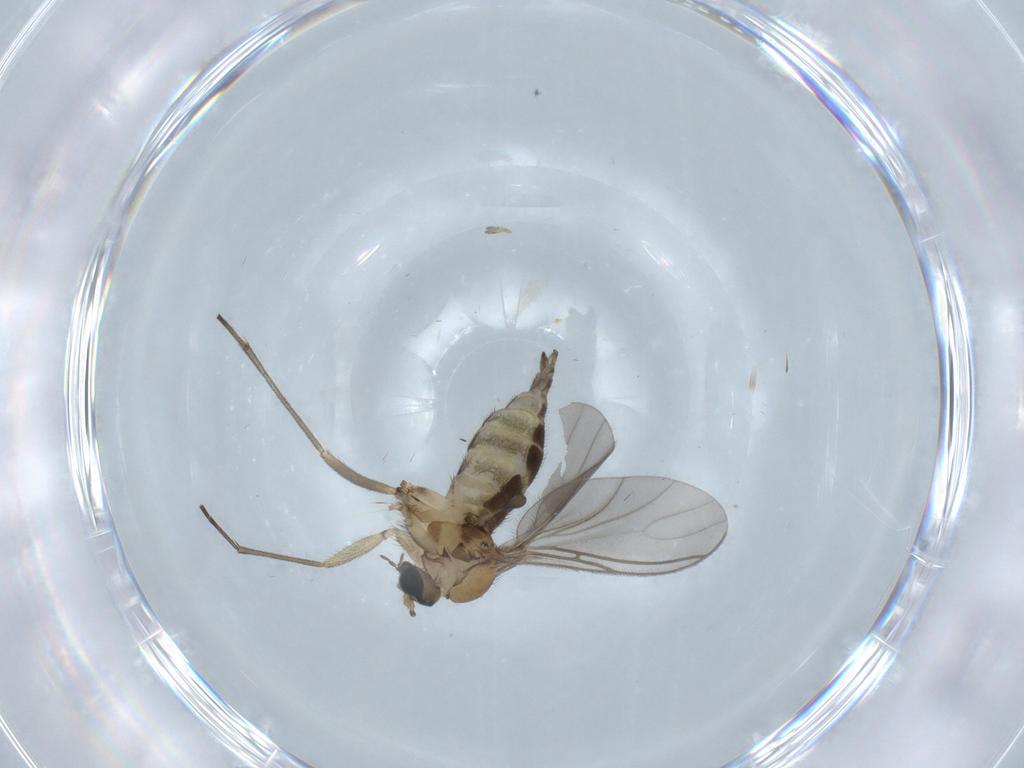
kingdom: Animalia
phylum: Arthropoda
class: Insecta
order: Diptera
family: Sciaridae
